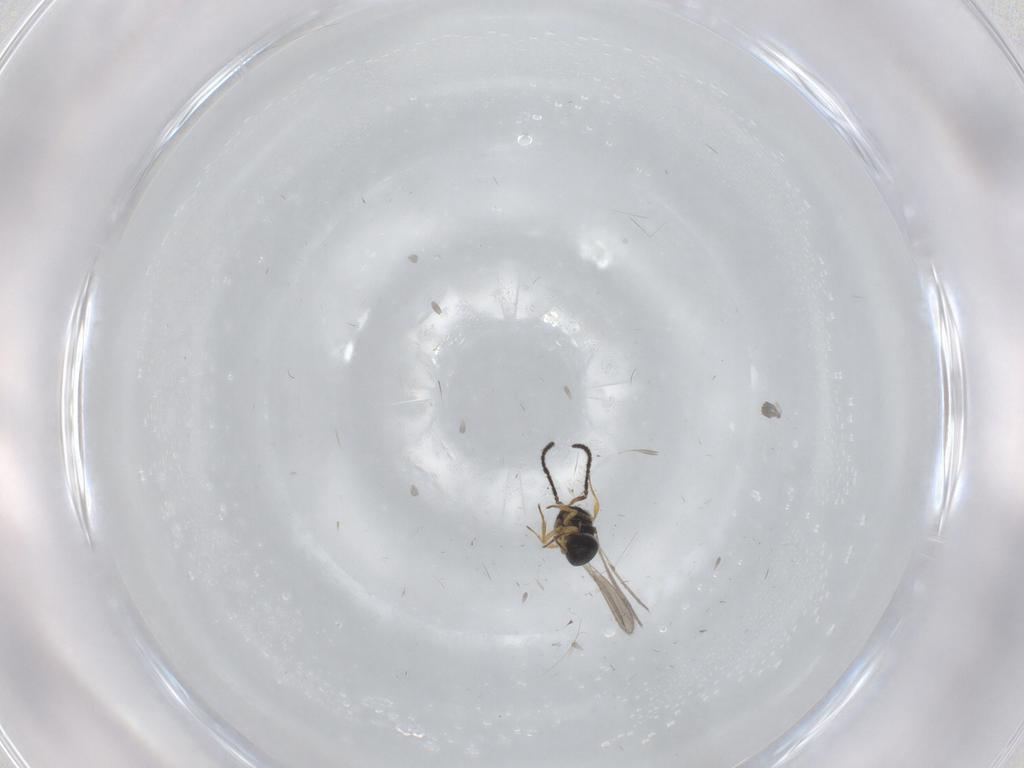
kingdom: Animalia
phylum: Arthropoda
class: Insecta
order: Hymenoptera
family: Scelionidae
